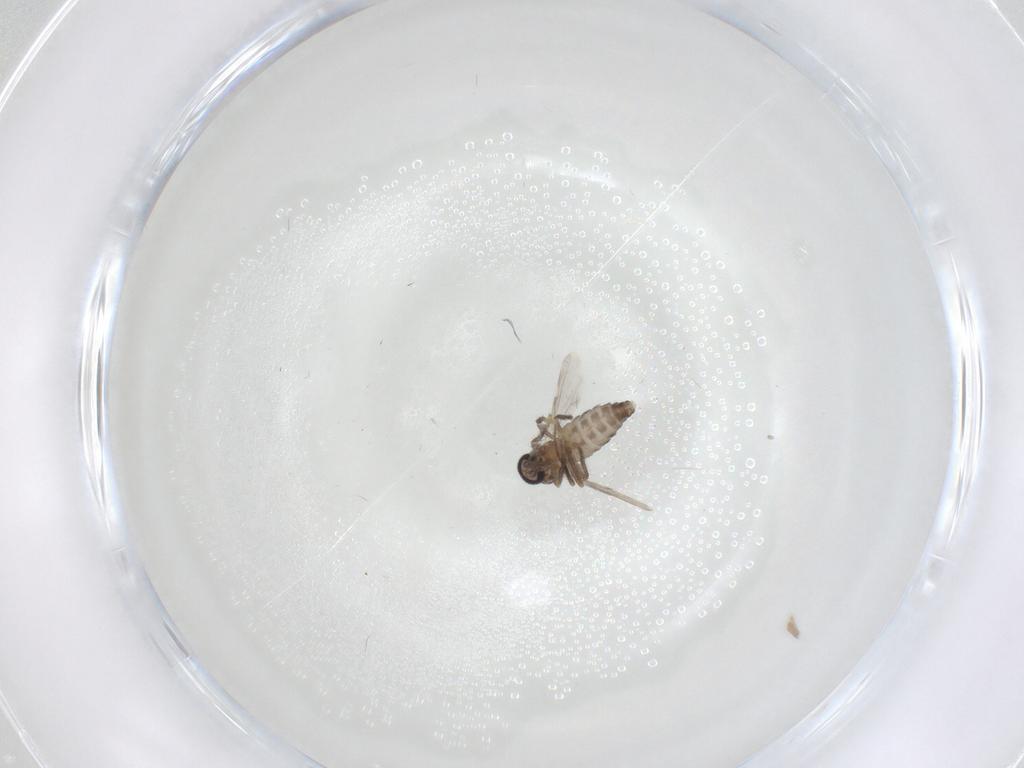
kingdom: Animalia
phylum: Arthropoda
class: Insecta
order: Diptera
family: Ceratopogonidae
